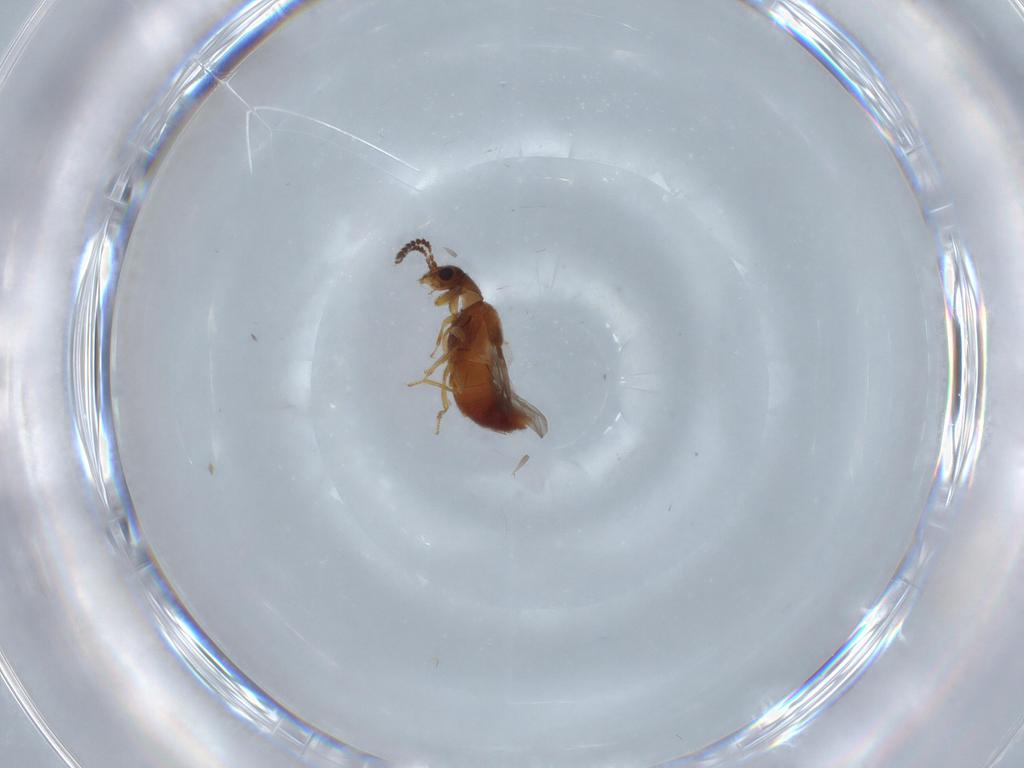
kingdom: Animalia
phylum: Arthropoda
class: Insecta
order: Coleoptera
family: Staphylinidae
